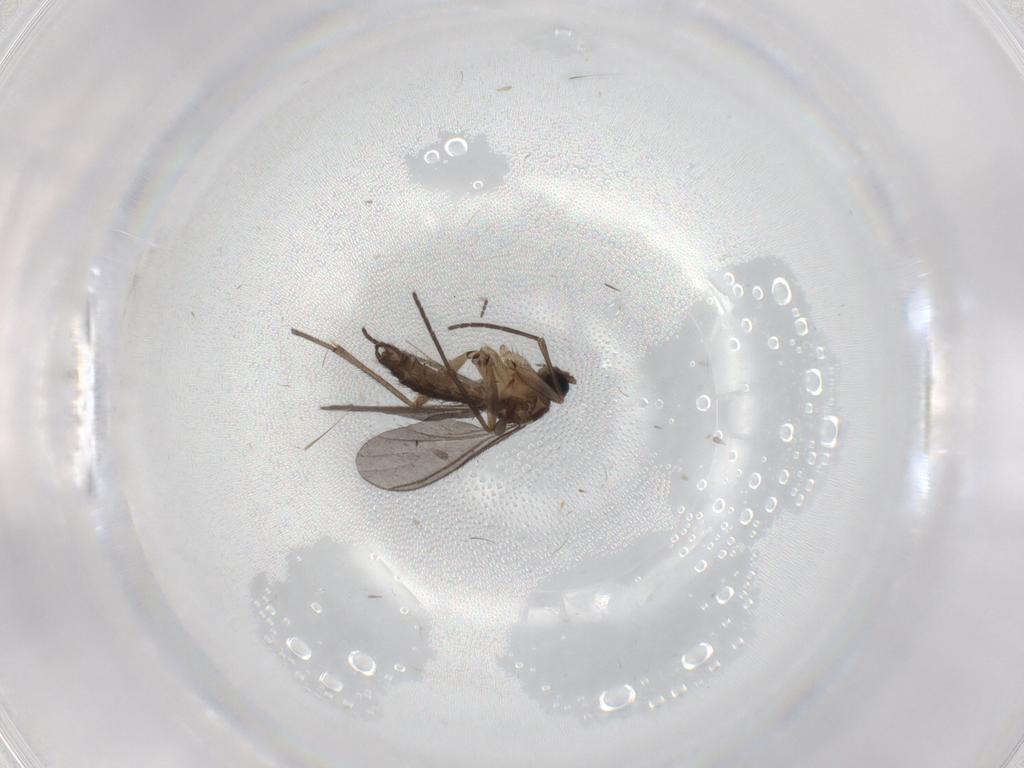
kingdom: Animalia
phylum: Arthropoda
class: Insecta
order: Diptera
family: Sciaridae
